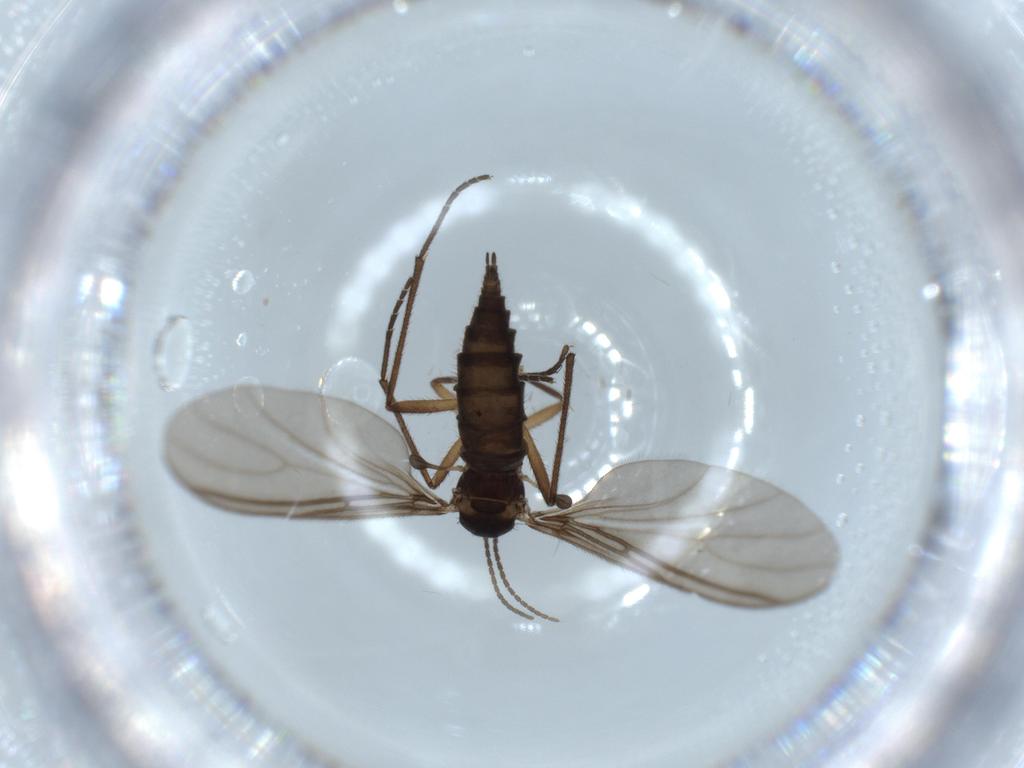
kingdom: Animalia
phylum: Arthropoda
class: Insecta
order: Diptera
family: Sciaridae
